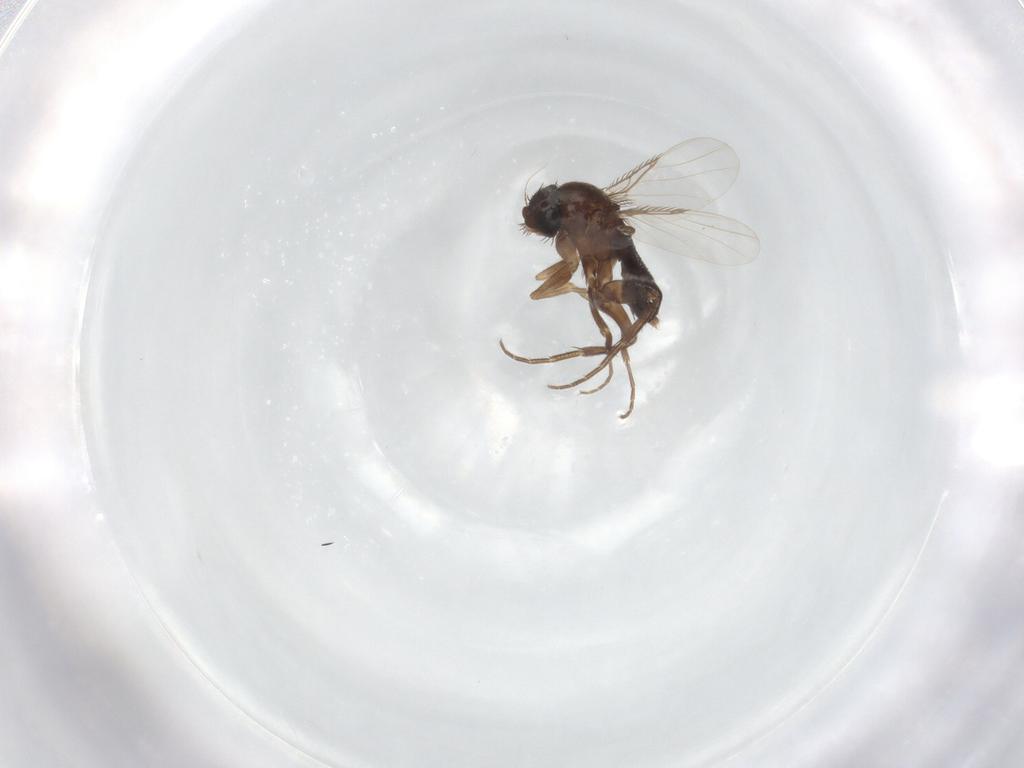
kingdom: Animalia
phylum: Arthropoda
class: Insecta
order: Diptera
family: Phoridae
